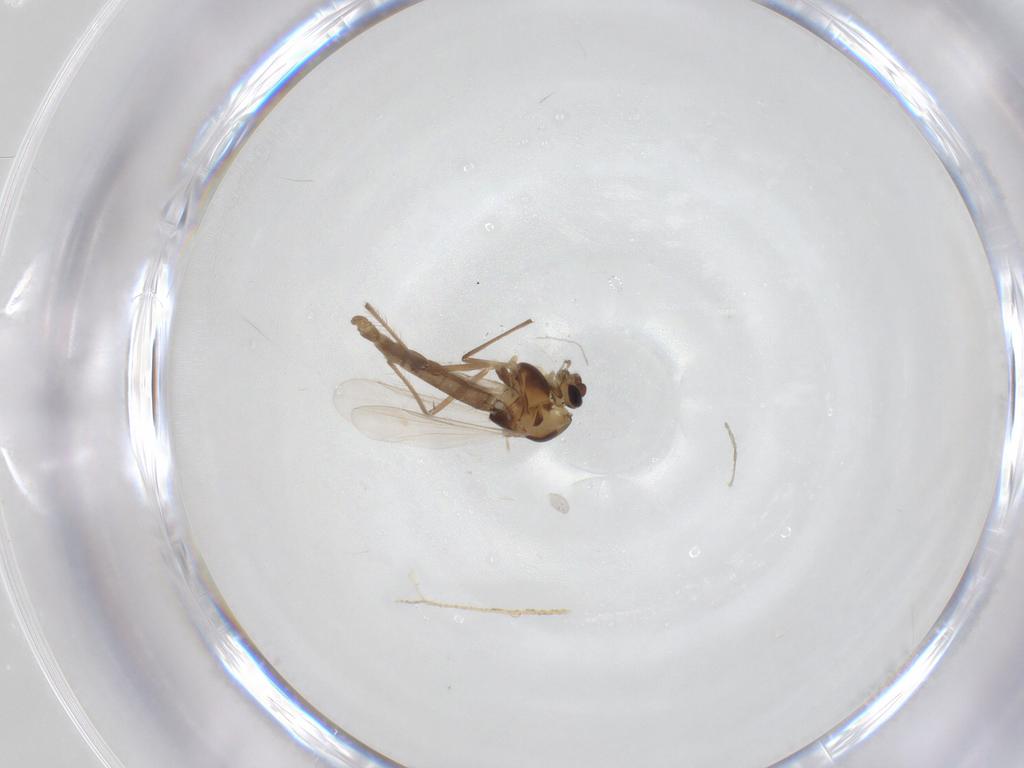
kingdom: Animalia
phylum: Arthropoda
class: Insecta
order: Diptera
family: Chironomidae
